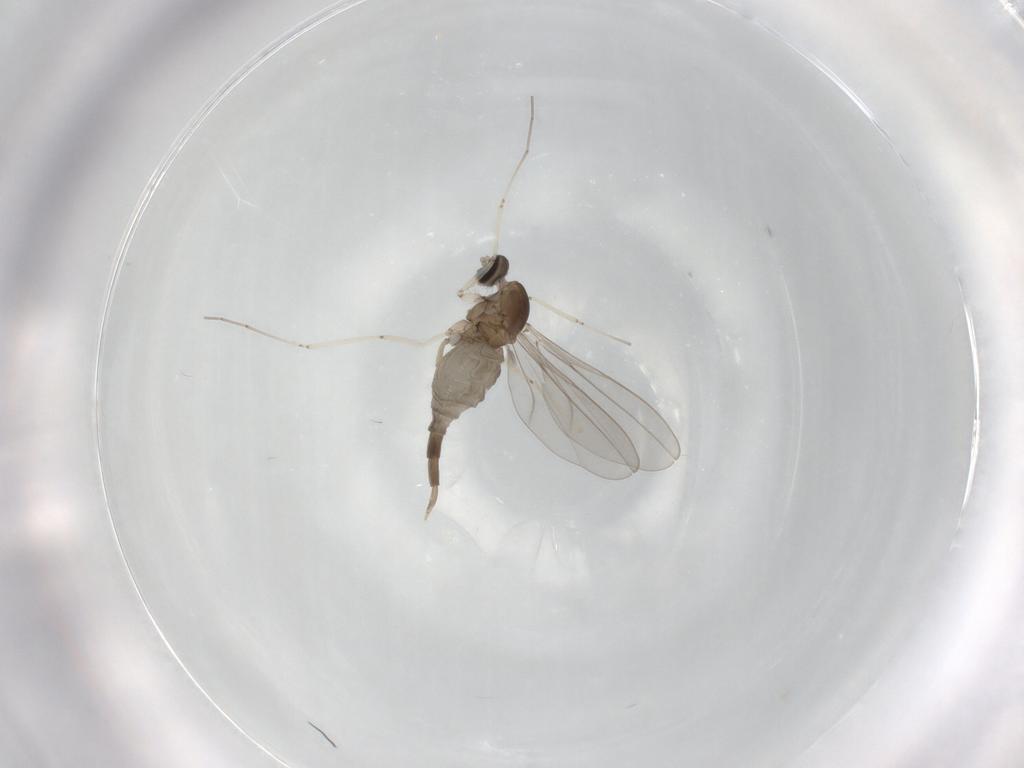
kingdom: Animalia
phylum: Arthropoda
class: Insecta
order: Diptera
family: Cecidomyiidae
